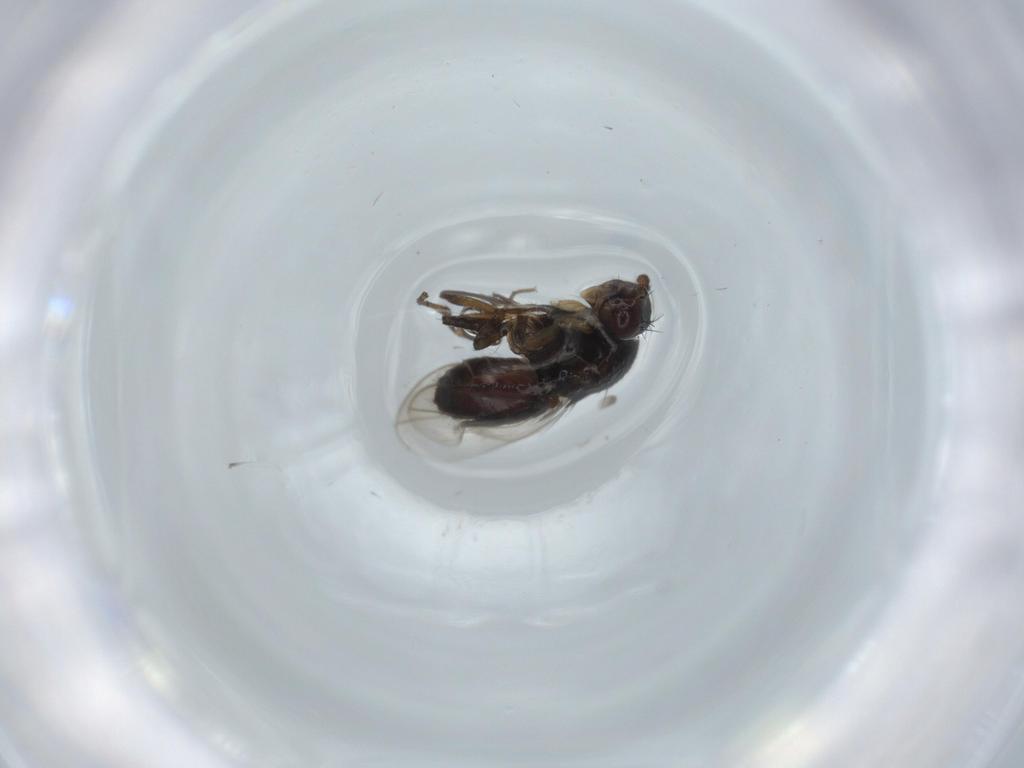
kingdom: Animalia
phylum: Arthropoda
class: Insecta
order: Diptera
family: Sphaeroceridae
